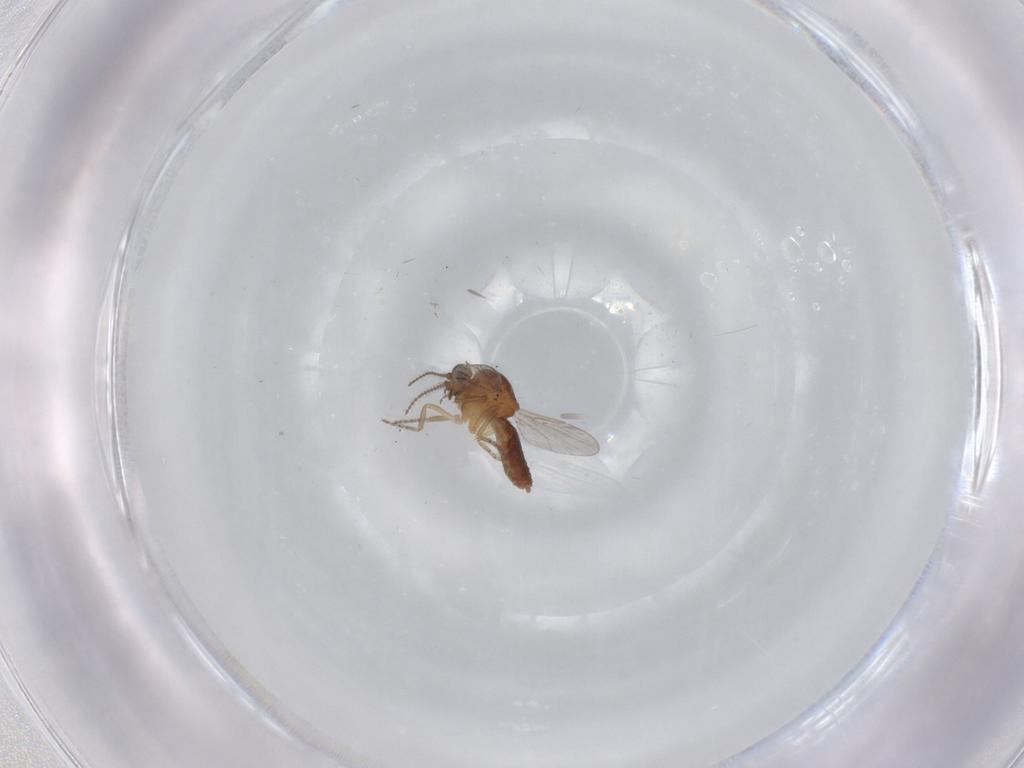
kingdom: Animalia
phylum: Arthropoda
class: Insecta
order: Diptera
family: Ceratopogonidae
